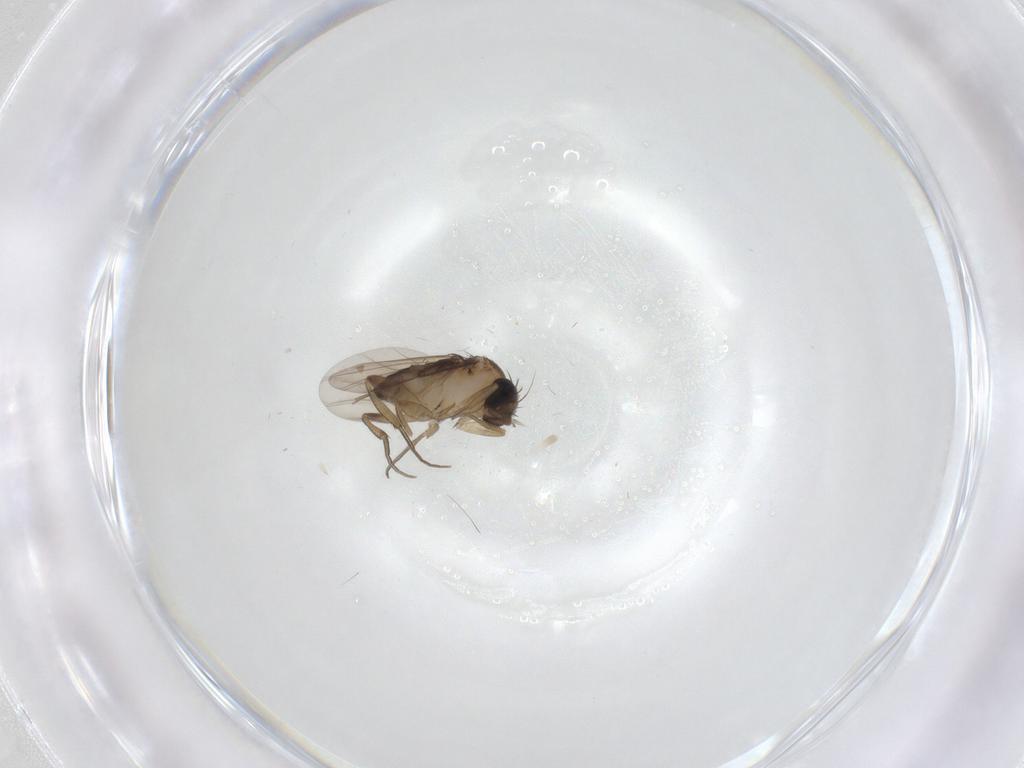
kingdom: Animalia
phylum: Arthropoda
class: Insecta
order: Diptera
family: Phoridae
